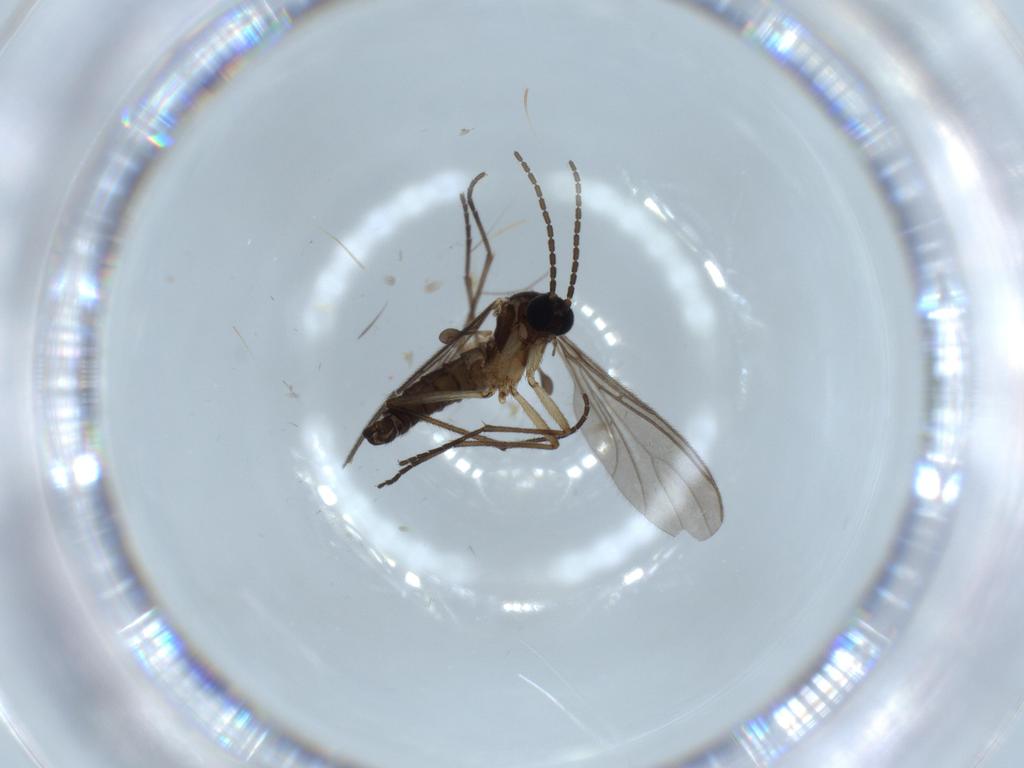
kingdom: Animalia
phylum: Arthropoda
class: Insecta
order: Diptera
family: Sciaridae
